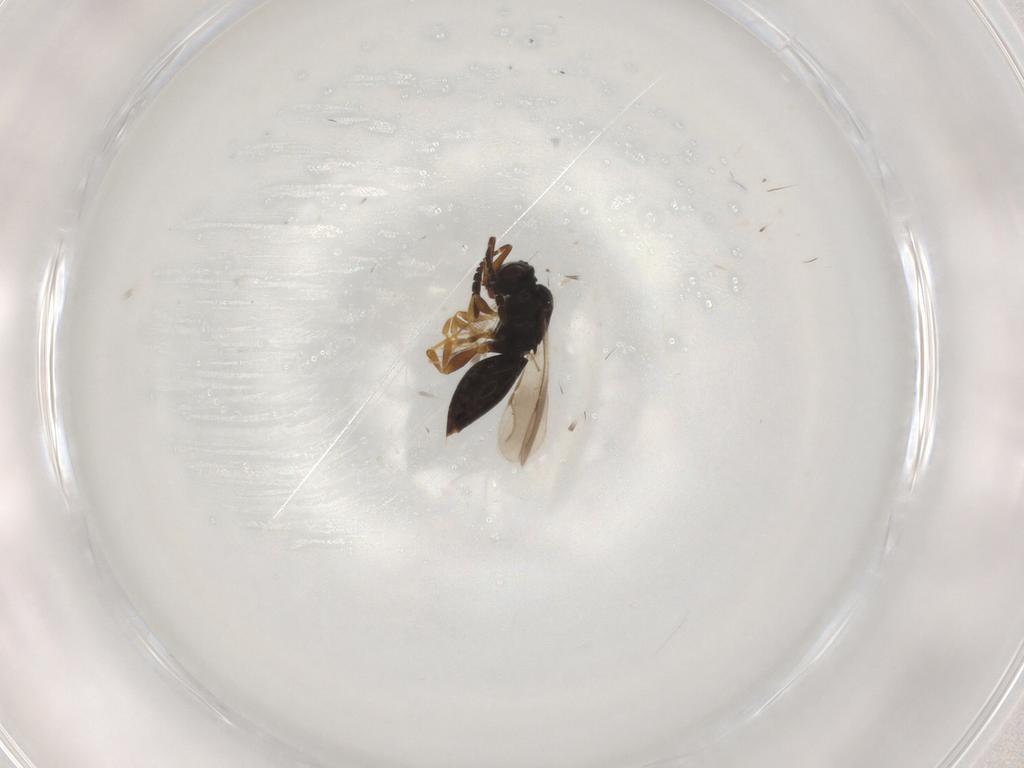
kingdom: Animalia
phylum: Arthropoda
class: Insecta
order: Hymenoptera
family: Ceraphronidae
